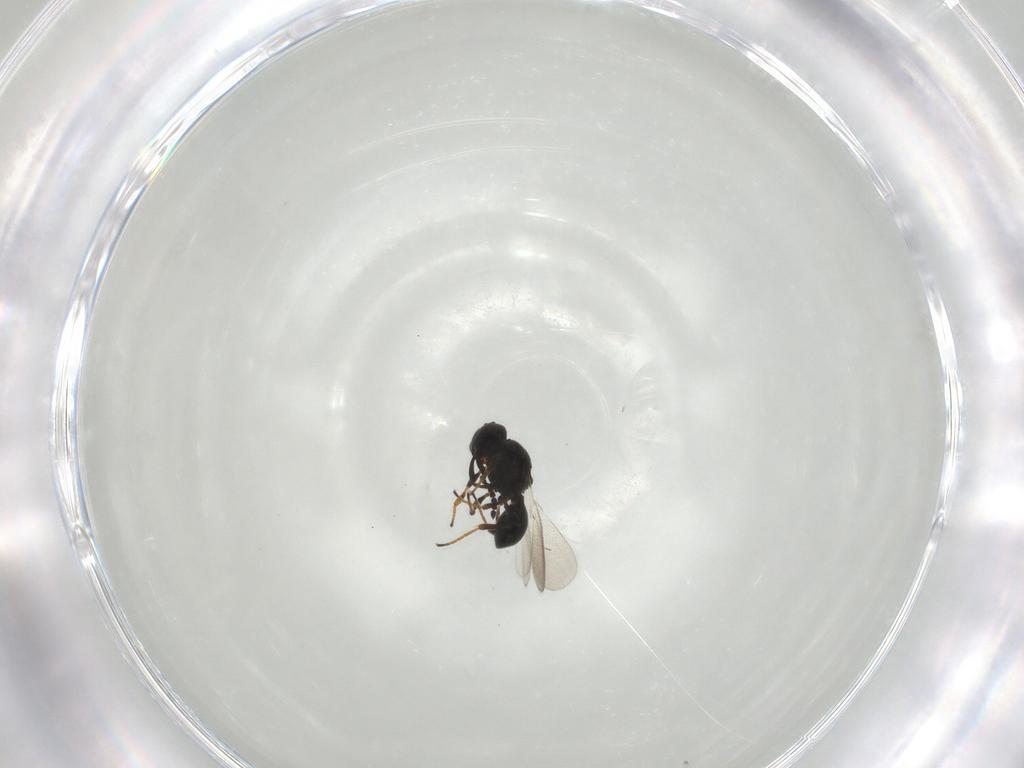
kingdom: Animalia
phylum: Arthropoda
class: Insecta
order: Hymenoptera
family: Platygastridae
